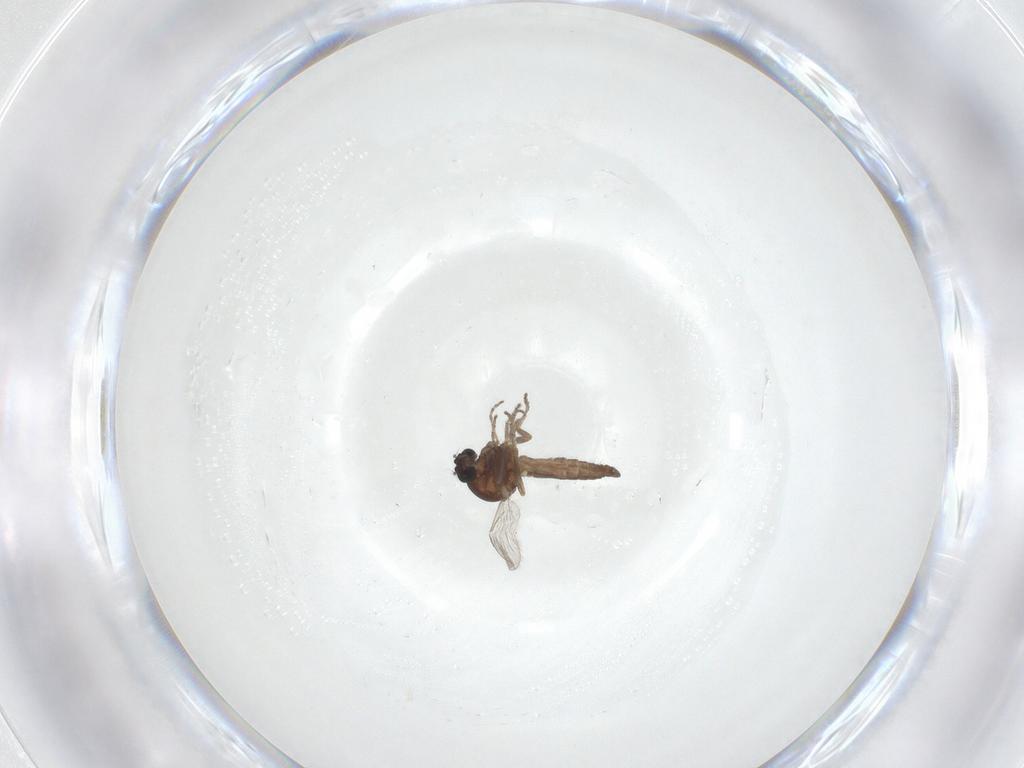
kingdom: Animalia
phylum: Arthropoda
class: Insecta
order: Diptera
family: Ceratopogonidae
